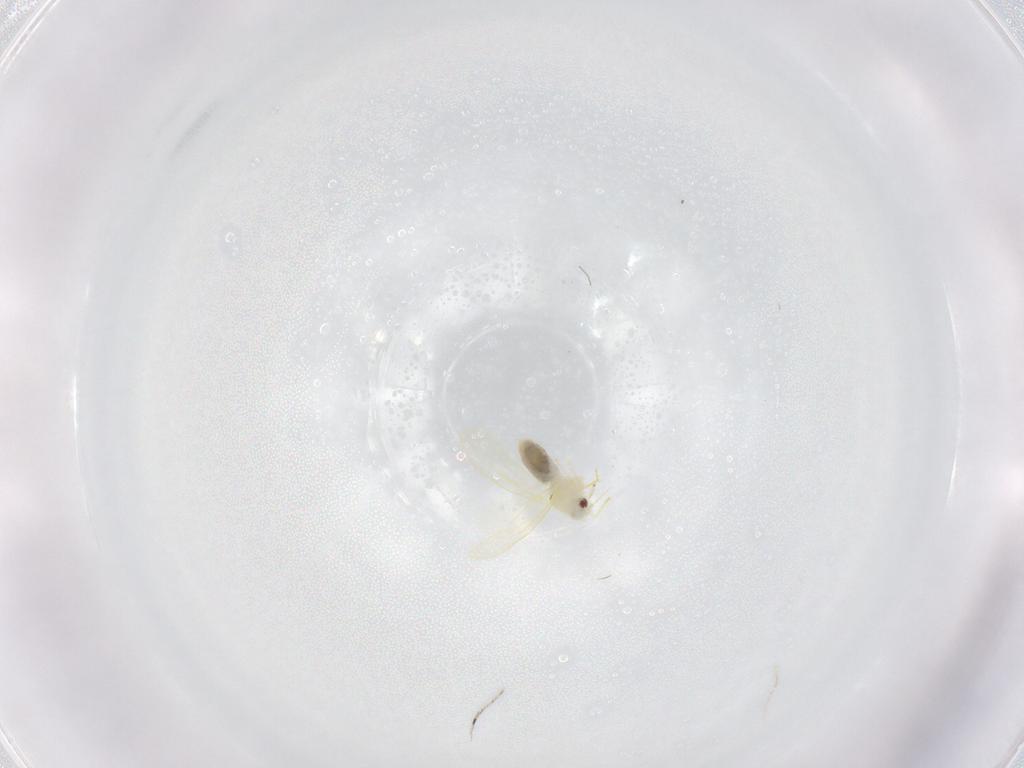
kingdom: Animalia
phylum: Arthropoda
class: Insecta
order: Hemiptera
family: Aleyrodidae
